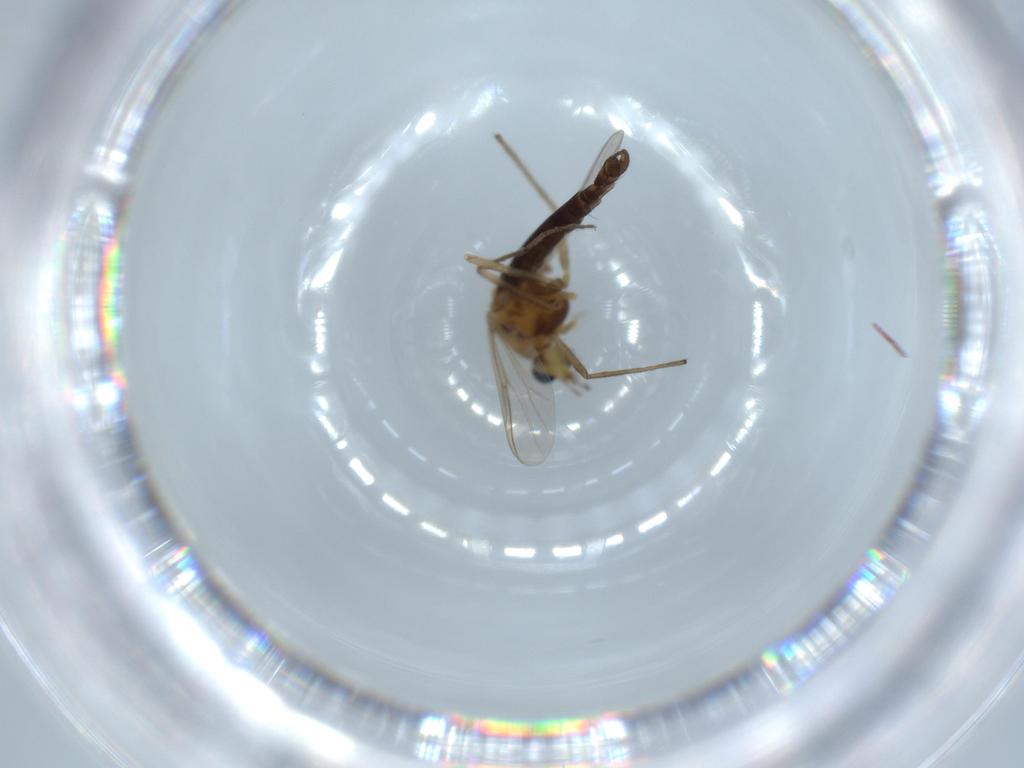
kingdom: Animalia
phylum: Arthropoda
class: Insecta
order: Diptera
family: Chironomidae
